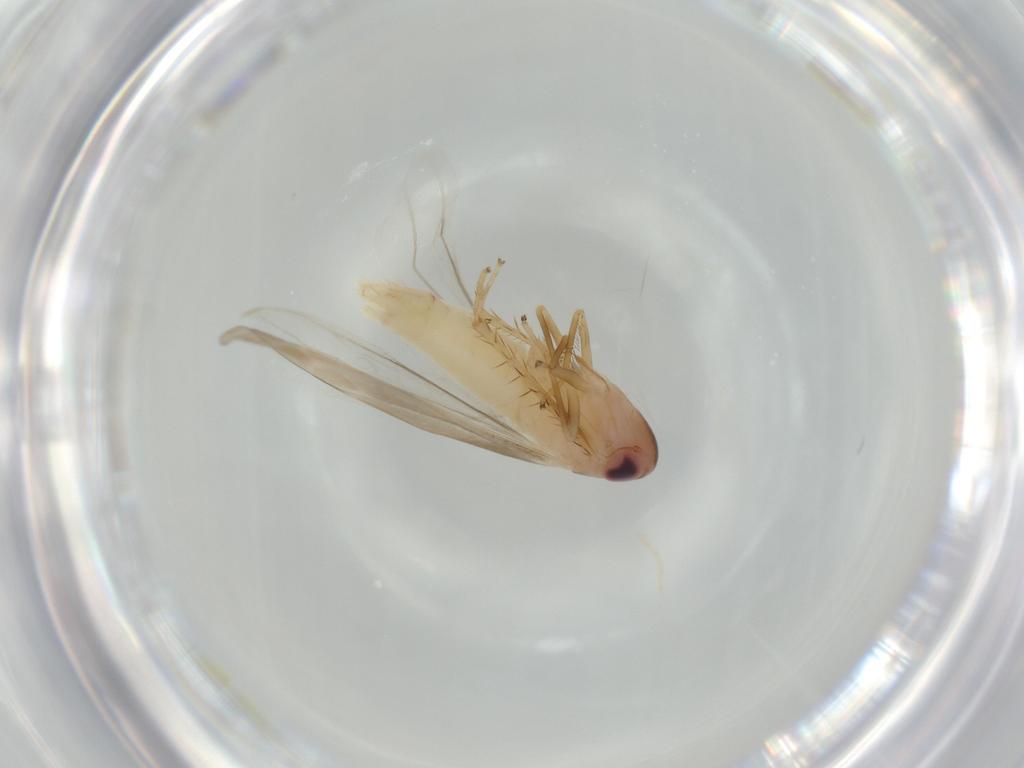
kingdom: Animalia
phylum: Arthropoda
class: Insecta
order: Hemiptera
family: Cicadellidae
